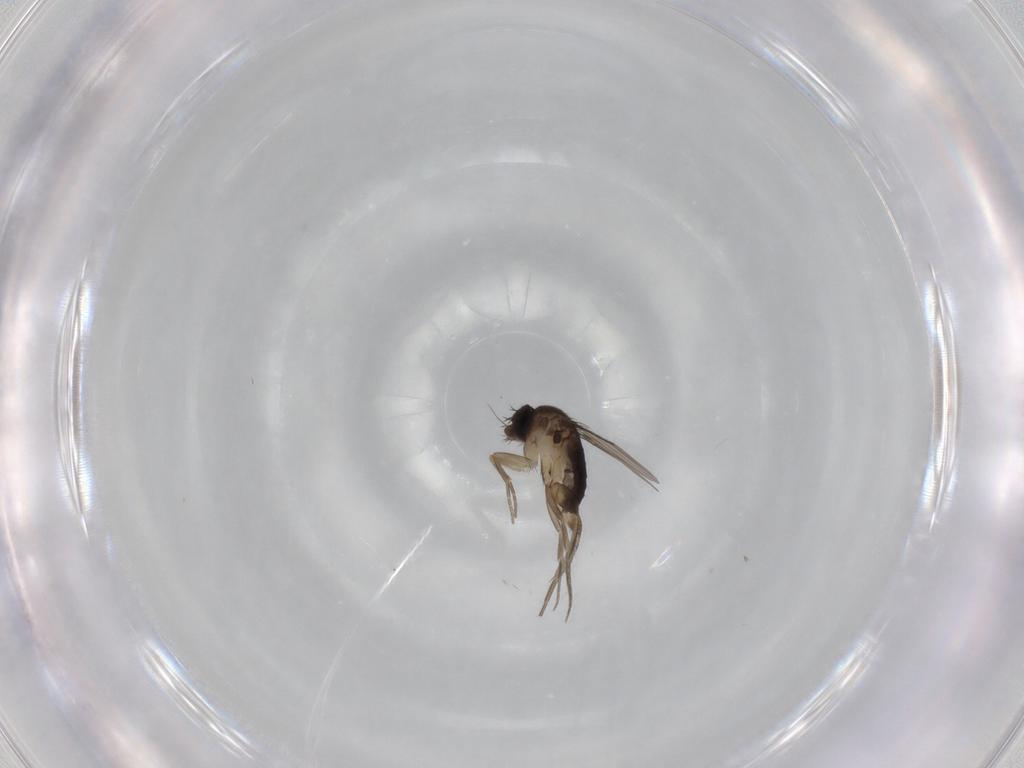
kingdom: Animalia
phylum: Arthropoda
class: Insecta
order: Diptera
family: Phoridae
